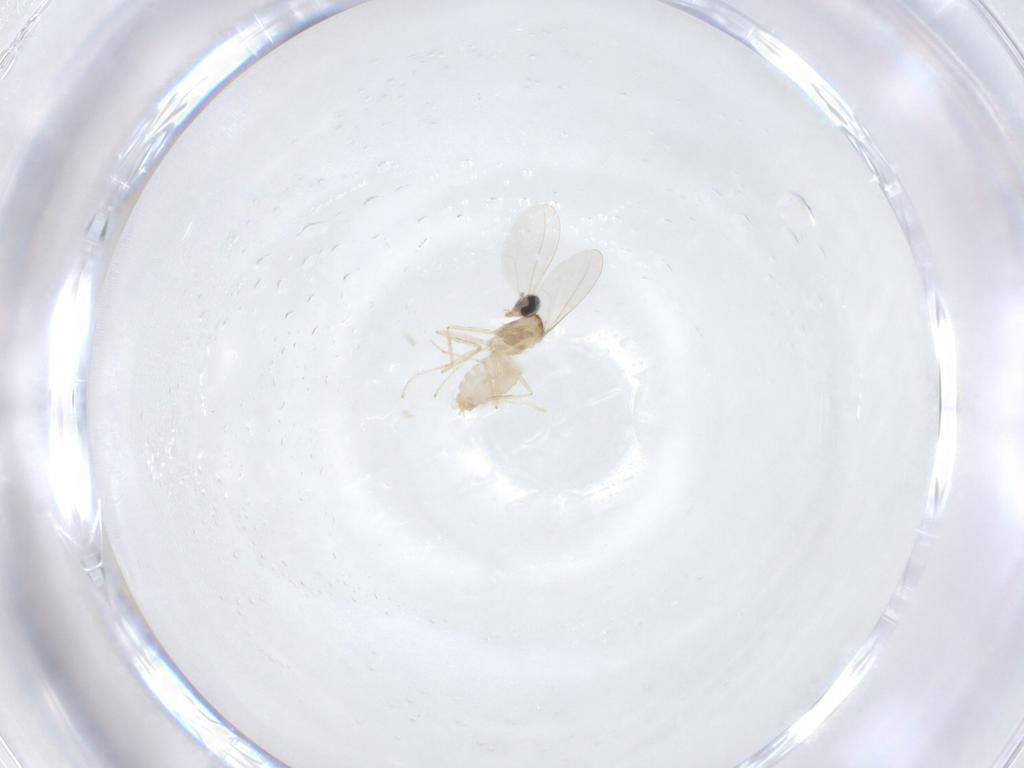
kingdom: Animalia
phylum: Arthropoda
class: Insecta
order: Diptera
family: Cecidomyiidae
